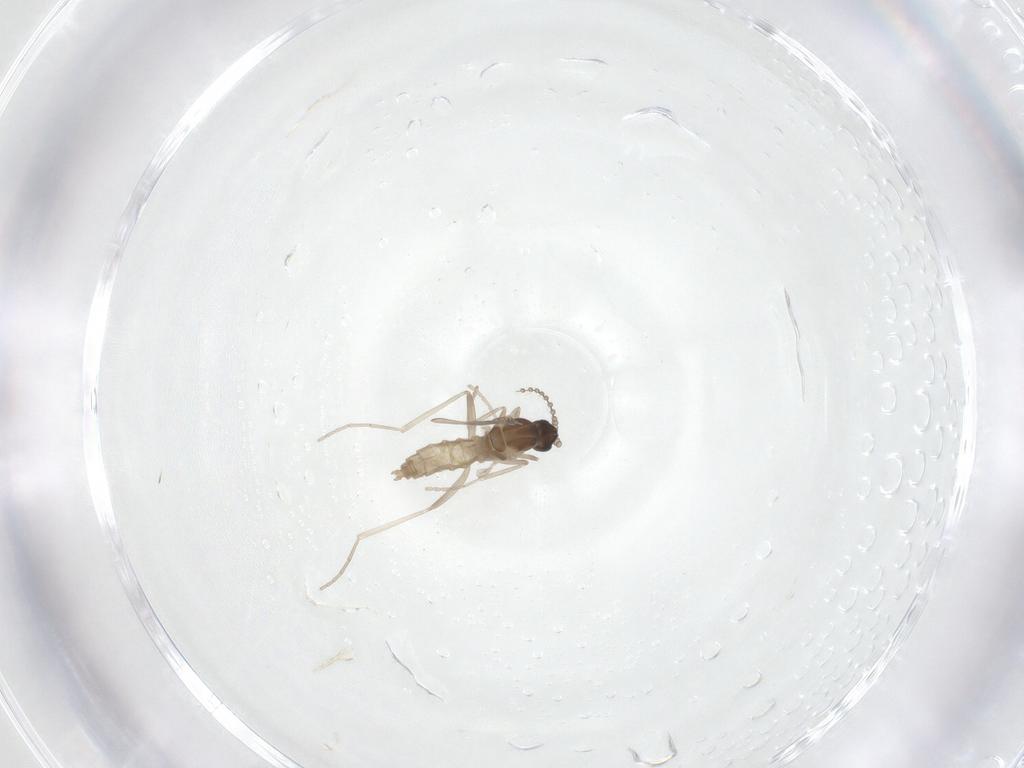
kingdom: Animalia
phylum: Arthropoda
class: Insecta
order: Diptera
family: Cecidomyiidae
